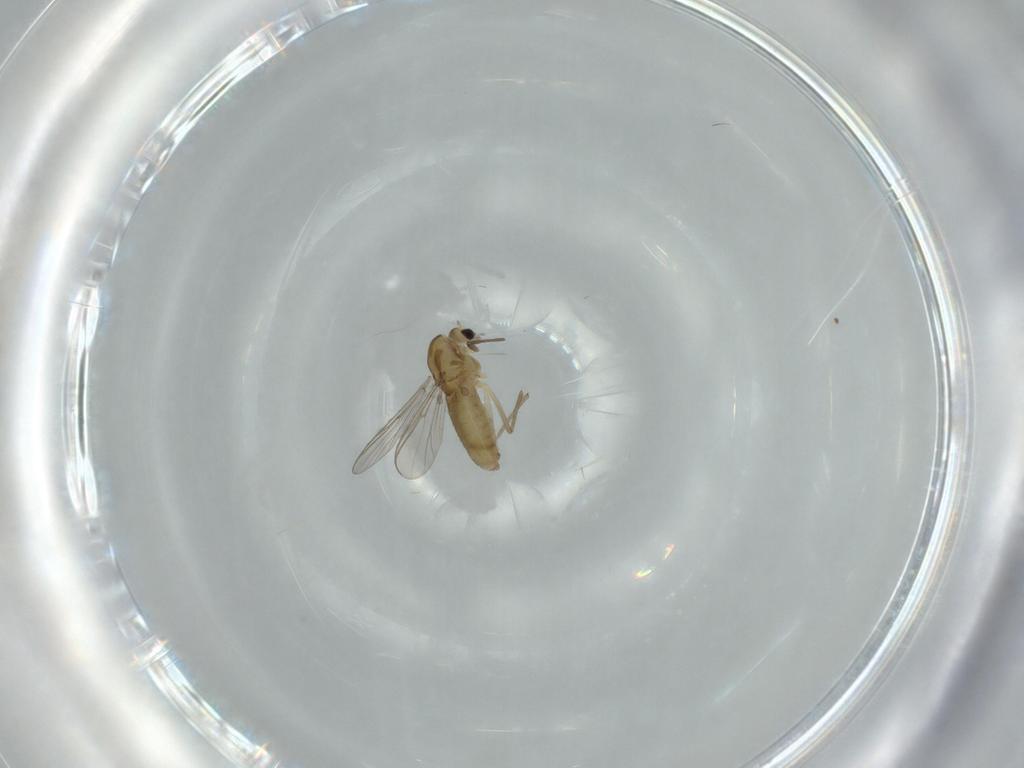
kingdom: Animalia
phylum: Arthropoda
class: Insecta
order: Diptera
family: Chironomidae
